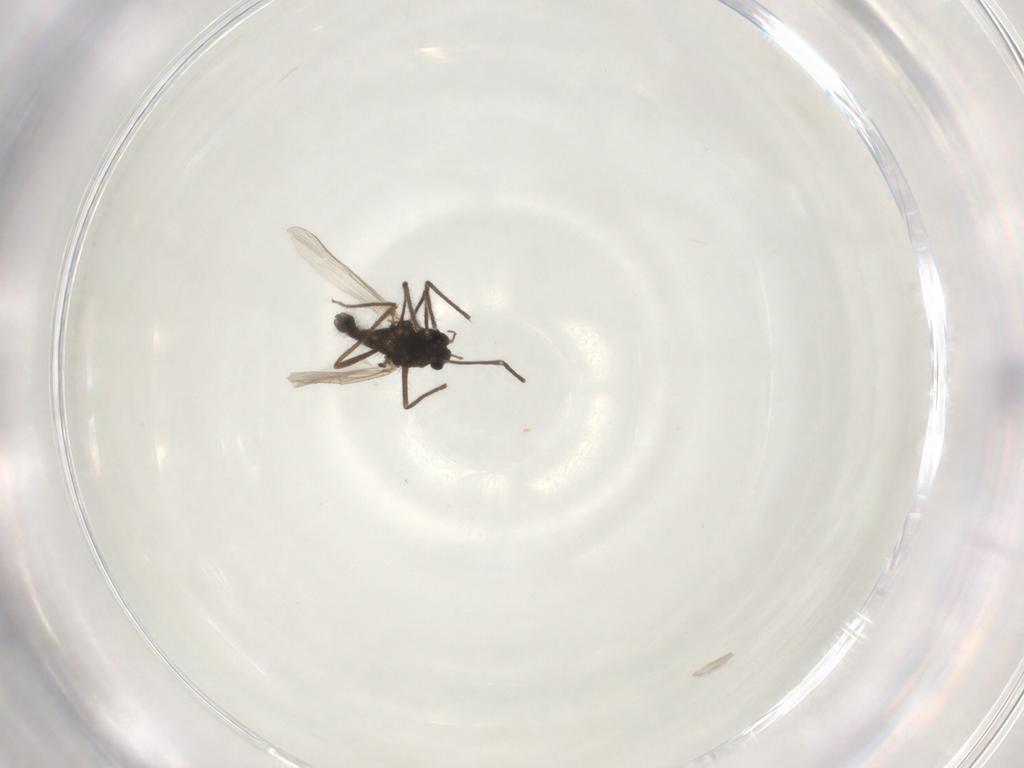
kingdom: Animalia
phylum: Arthropoda
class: Insecta
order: Diptera
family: Chironomidae
